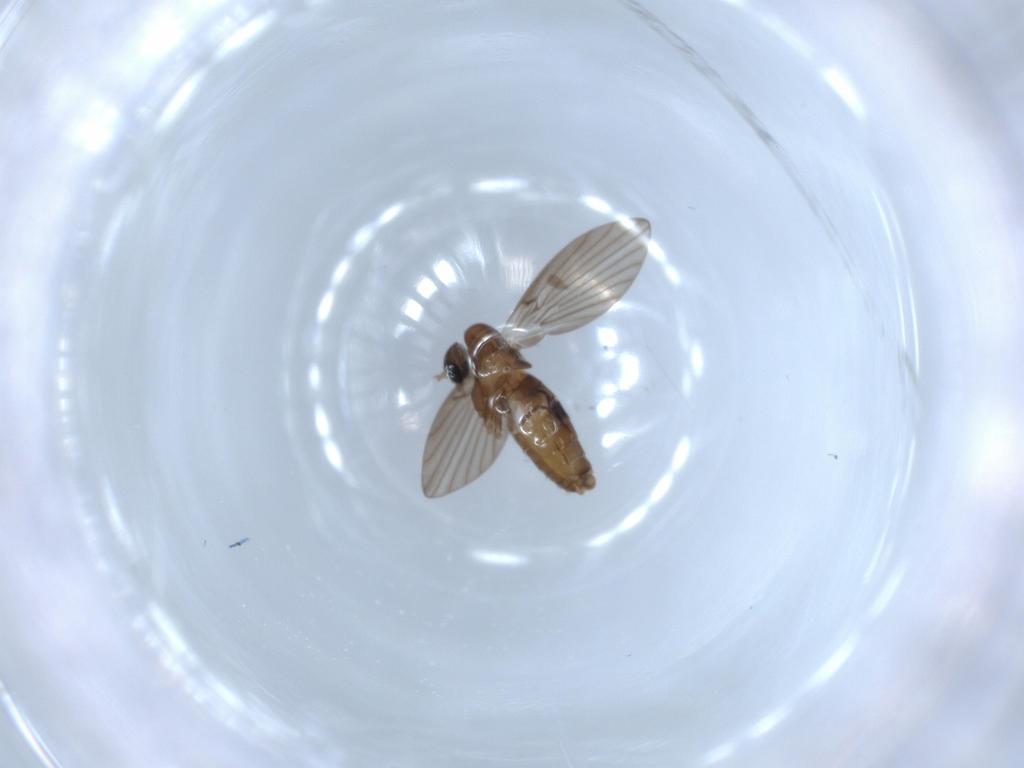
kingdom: Animalia
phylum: Arthropoda
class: Insecta
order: Diptera
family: Psychodidae
